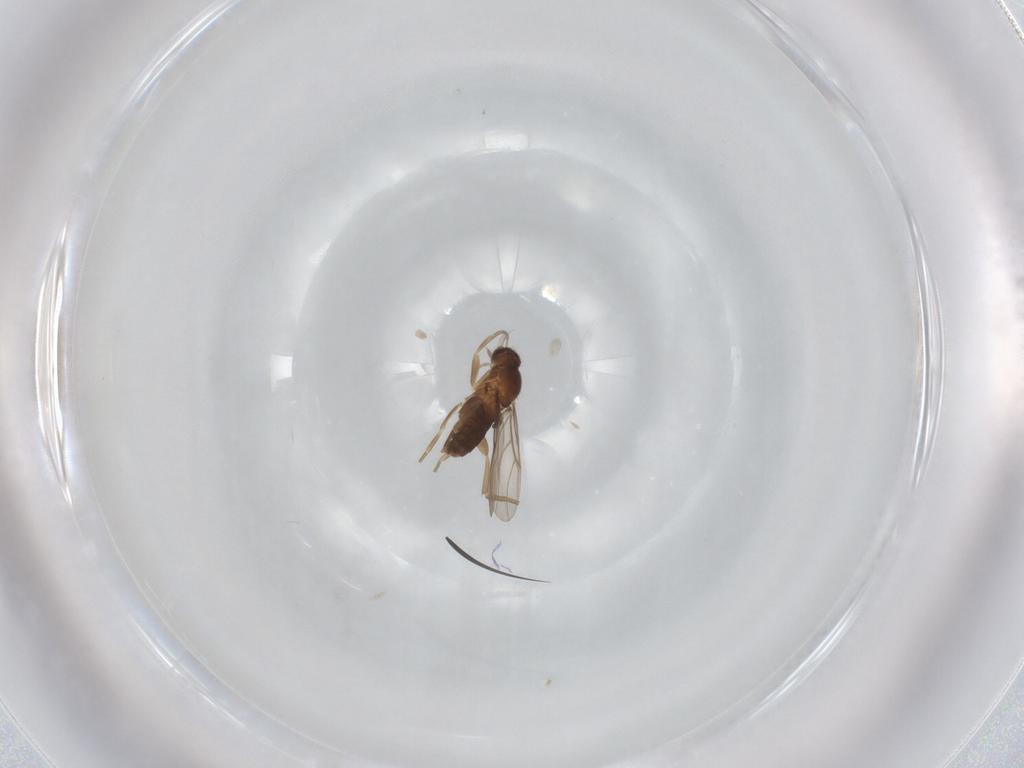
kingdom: Animalia
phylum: Arthropoda
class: Insecta
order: Diptera
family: Phoridae
